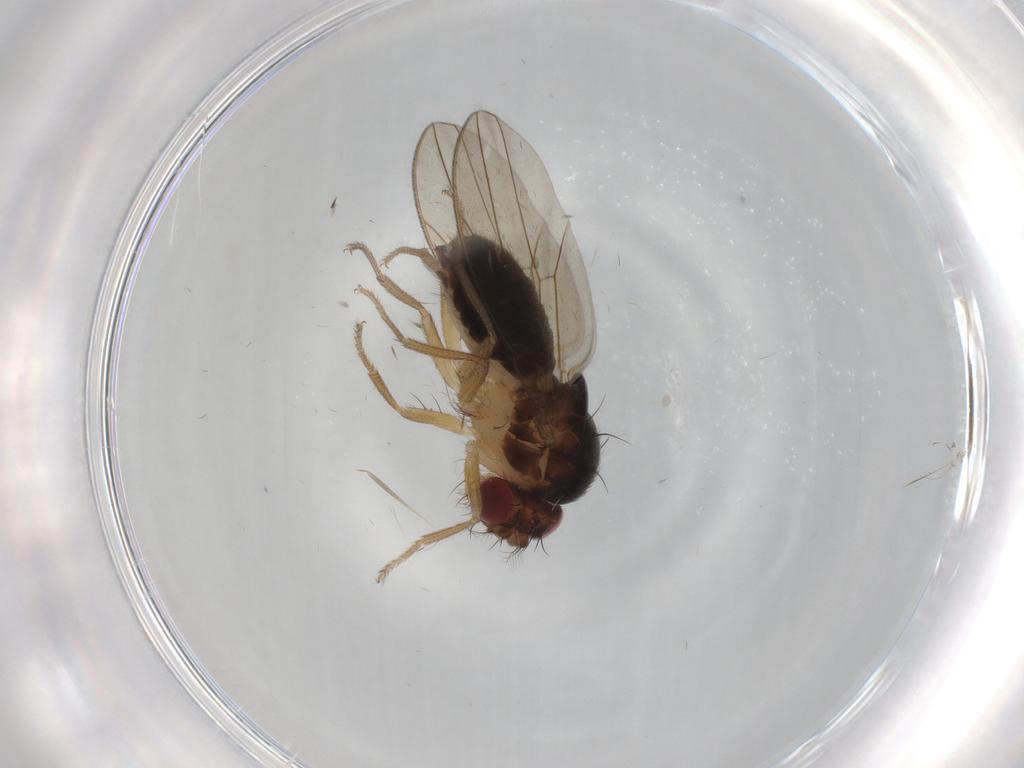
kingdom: Animalia
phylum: Arthropoda
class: Insecta
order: Diptera
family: Drosophilidae
